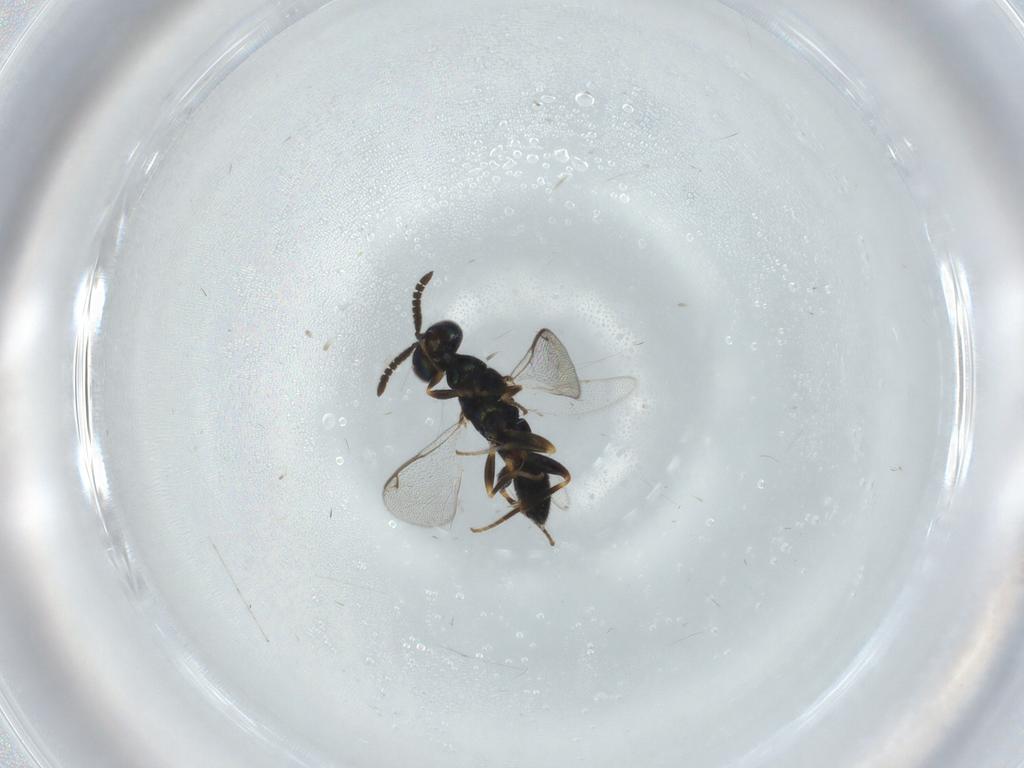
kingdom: Animalia
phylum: Arthropoda
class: Insecta
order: Hymenoptera
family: Cleonyminae
